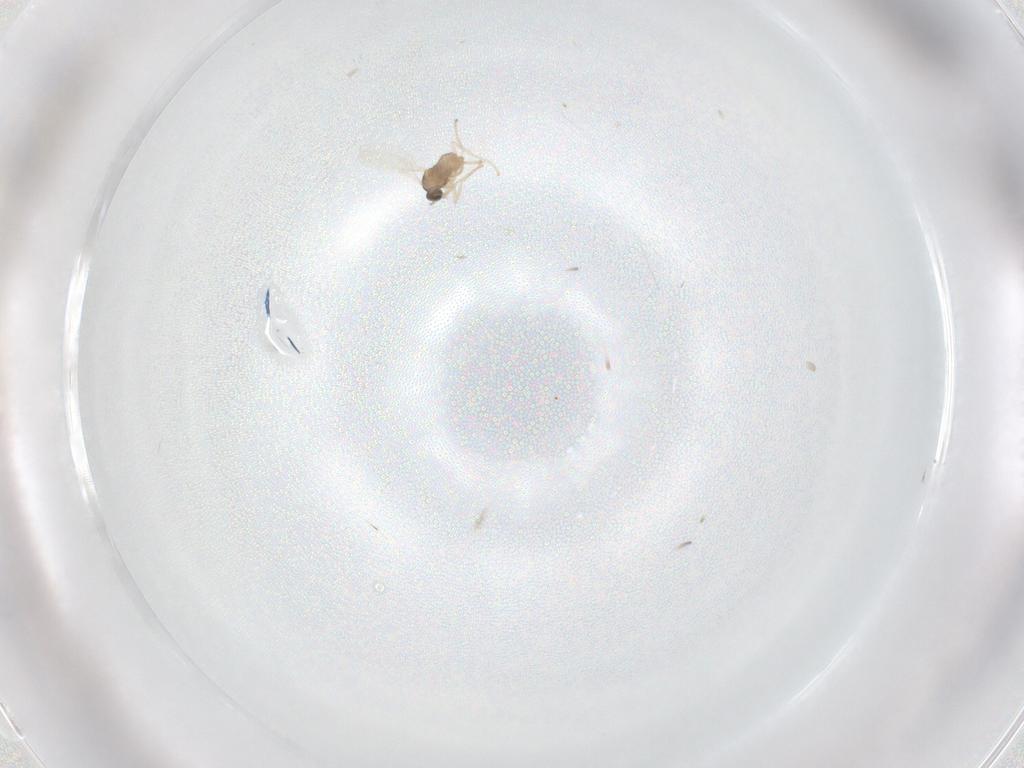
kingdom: Animalia
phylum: Arthropoda
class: Insecta
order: Diptera
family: Cecidomyiidae
